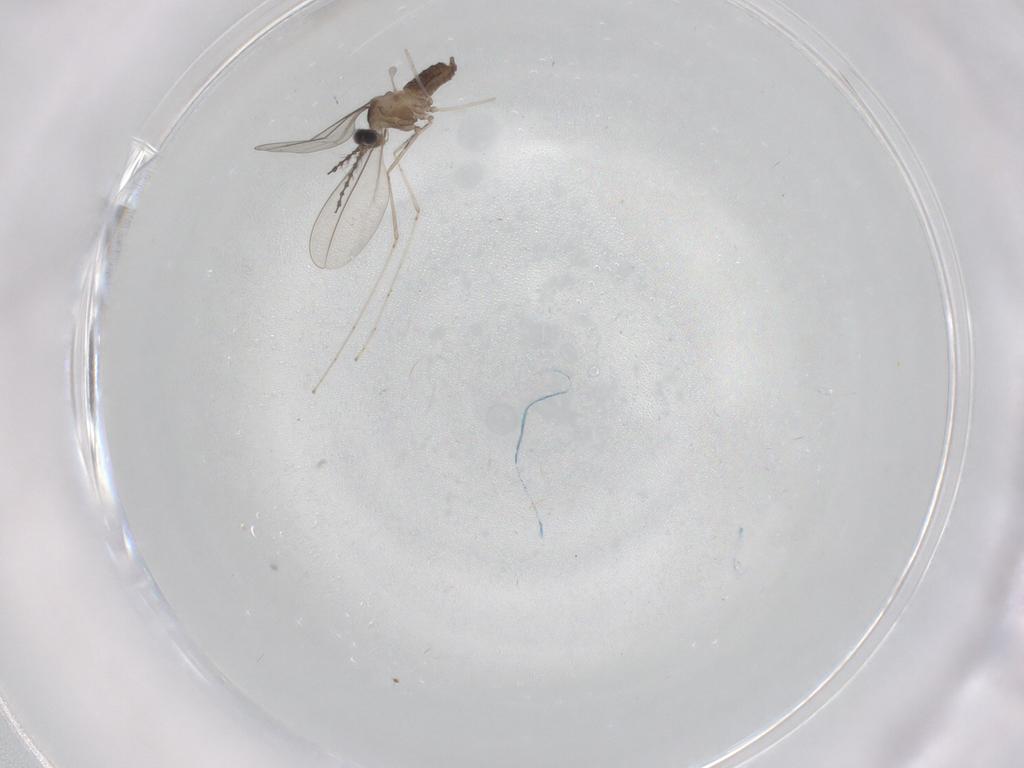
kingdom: Animalia
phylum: Arthropoda
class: Insecta
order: Diptera
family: Cecidomyiidae
